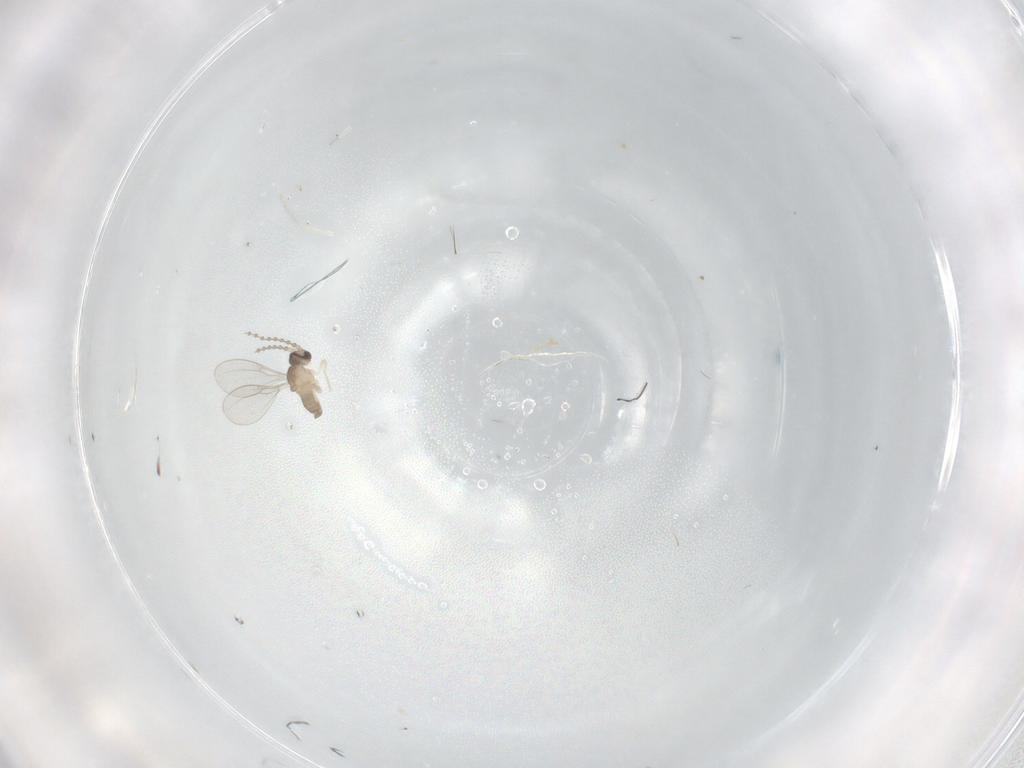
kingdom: Animalia
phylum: Arthropoda
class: Insecta
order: Diptera
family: Cecidomyiidae
